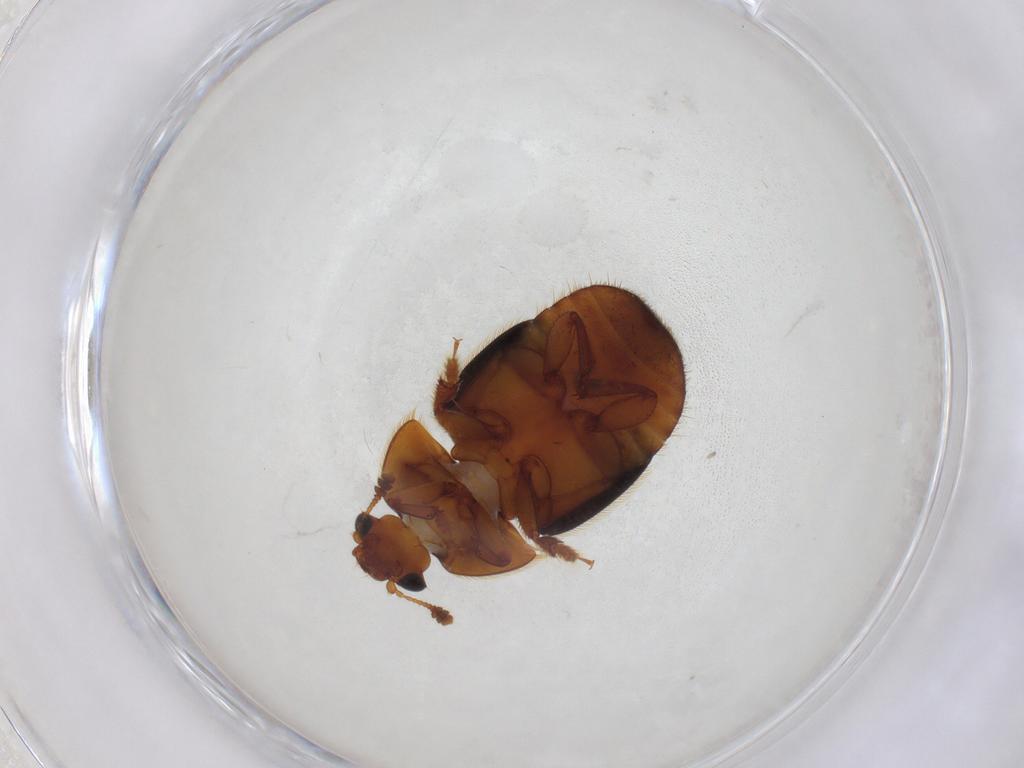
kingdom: Animalia
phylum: Arthropoda
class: Insecta
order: Coleoptera
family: Nitidulidae
